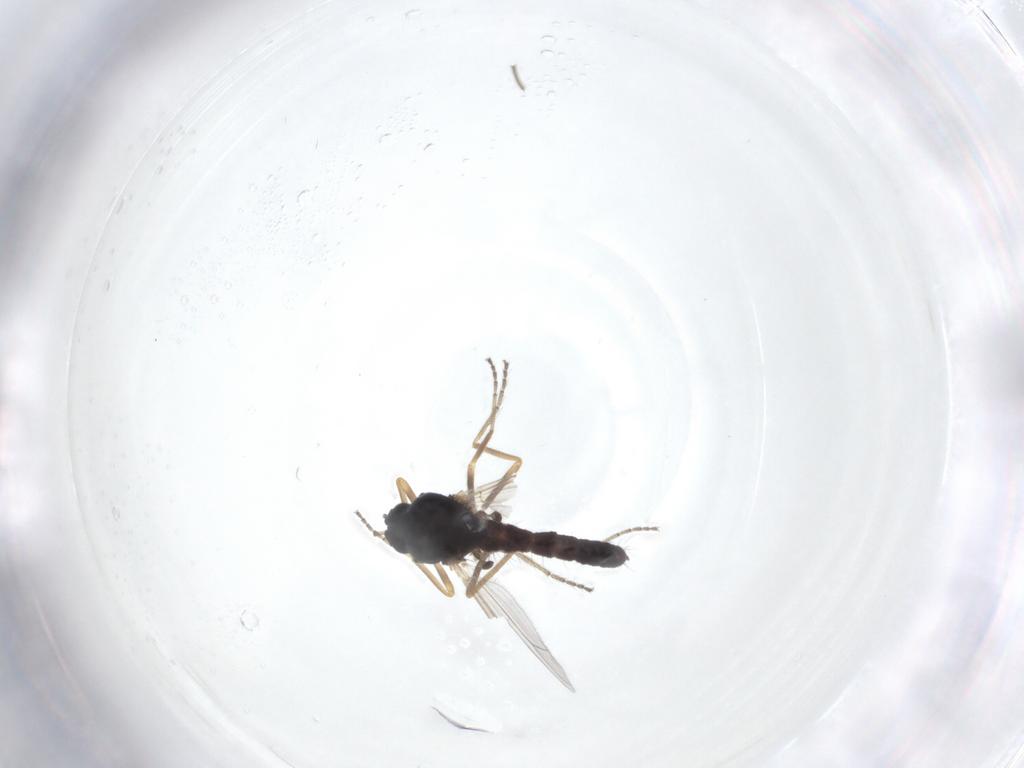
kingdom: Animalia
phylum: Arthropoda
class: Insecta
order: Diptera
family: Ceratopogonidae
